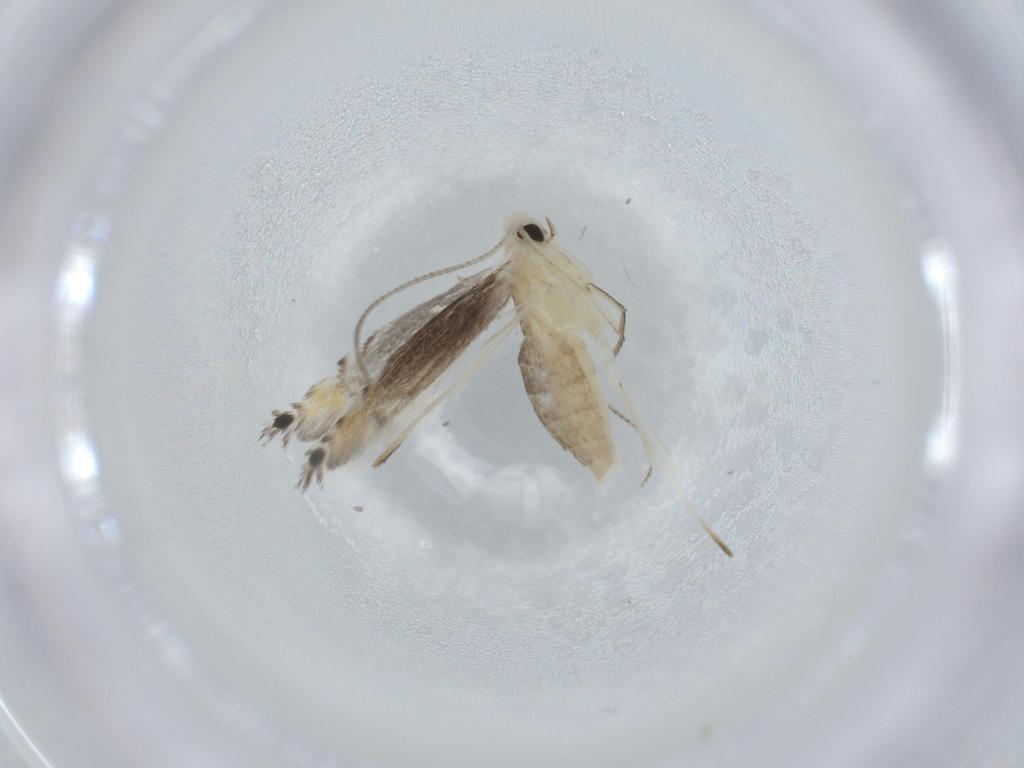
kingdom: Animalia
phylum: Arthropoda
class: Insecta
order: Lepidoptera
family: Gracillariidae
